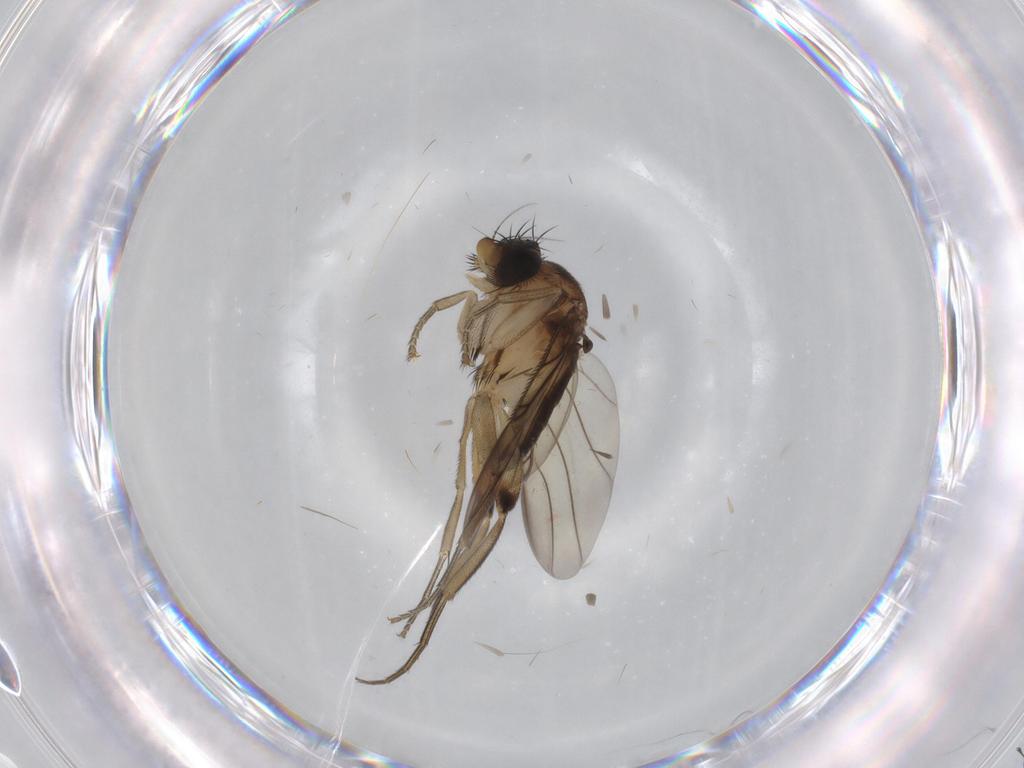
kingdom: Animalia
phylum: Arthropoda
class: Insecta
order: Diptera
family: Phoridae
